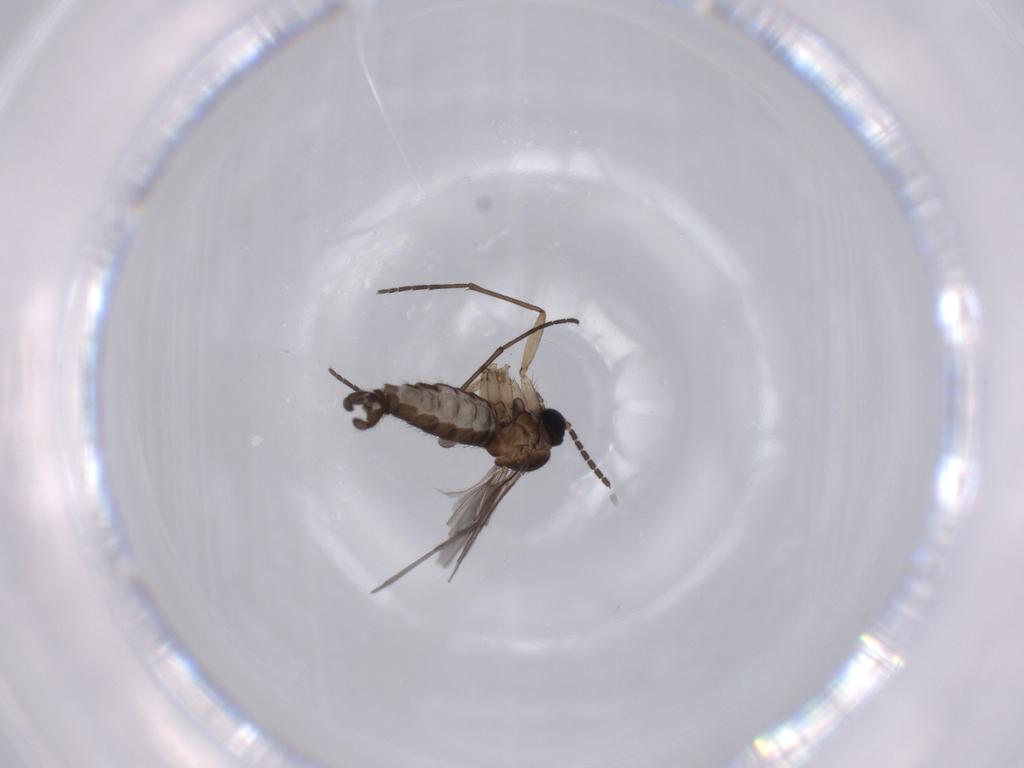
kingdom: Animalia
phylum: Arthropoda
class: Insecta
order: Diptera
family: Sciaridae
